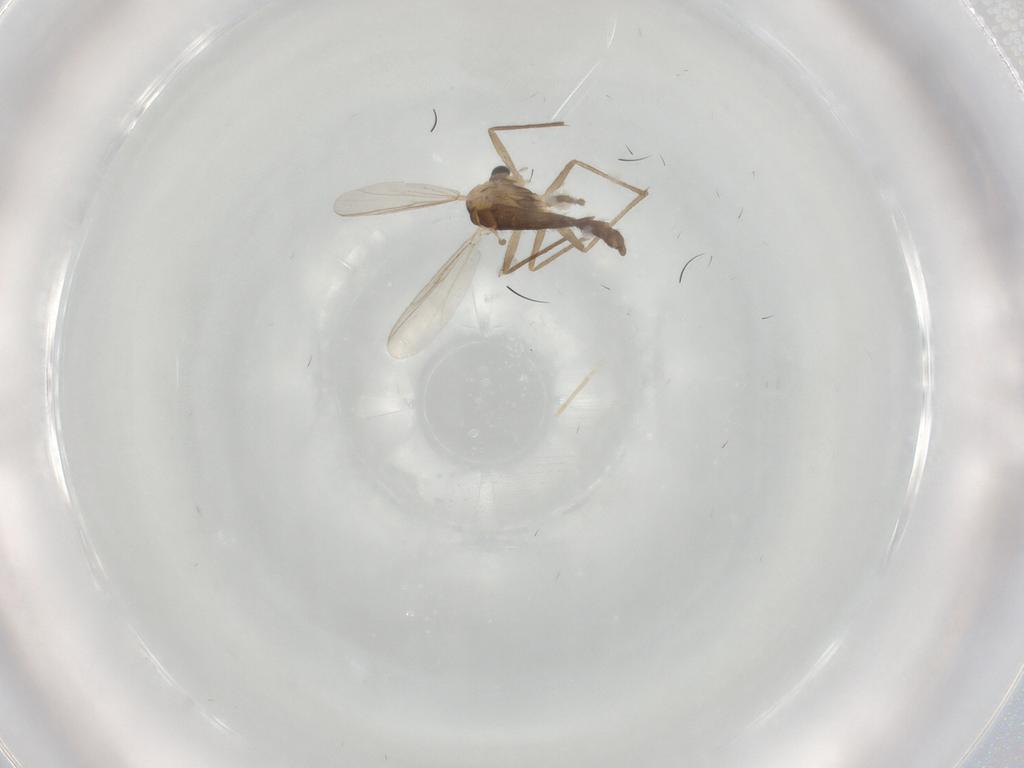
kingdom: Animalia
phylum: Arthropoda
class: Insecta
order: Diptera
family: Chironomidae
